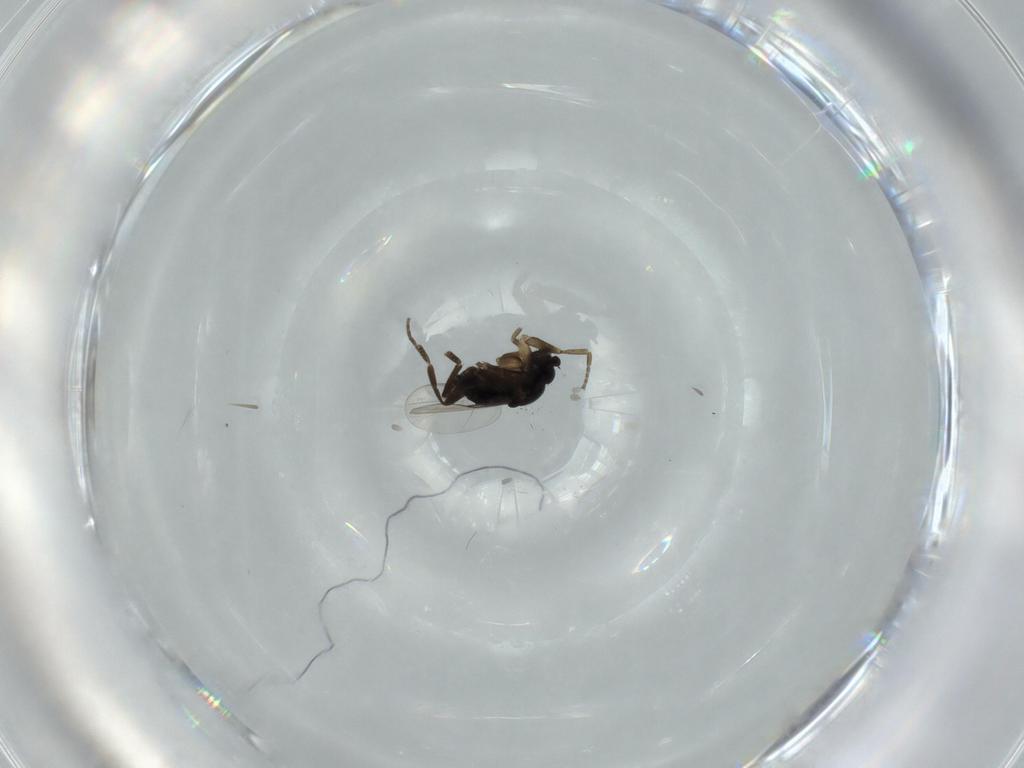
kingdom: Animalia
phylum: Arthropoda
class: Insecta
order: Diptera
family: Phoridae
